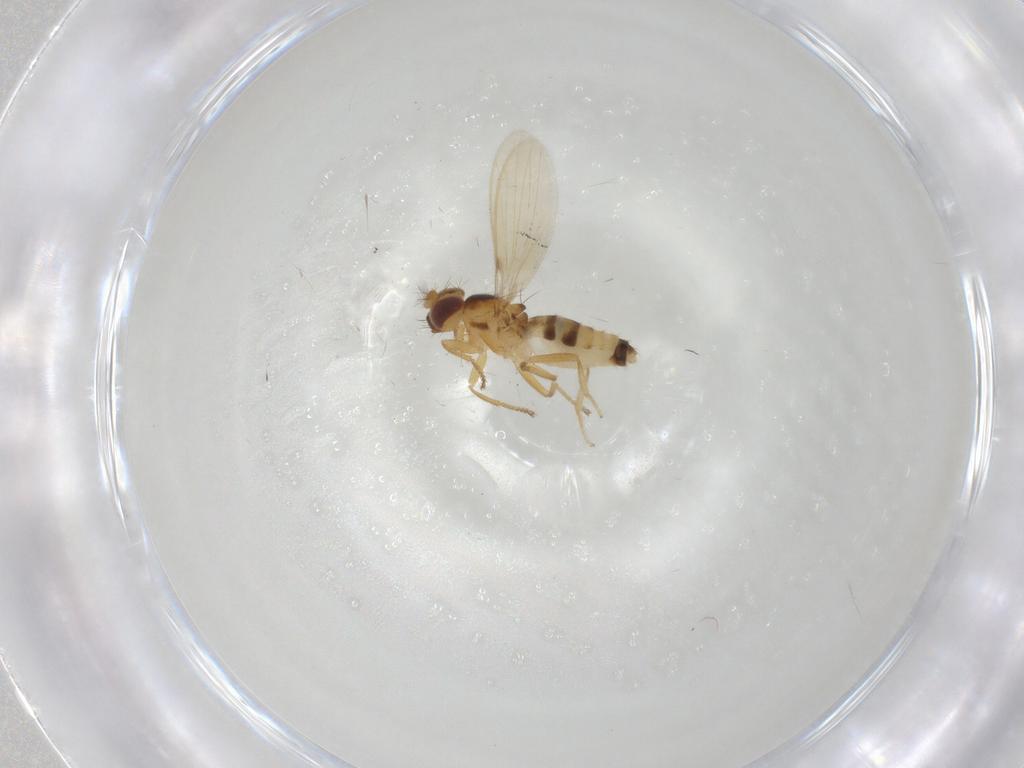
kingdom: Animalia
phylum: Arthropoda
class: Insecta
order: Diptera
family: Periscelididae
